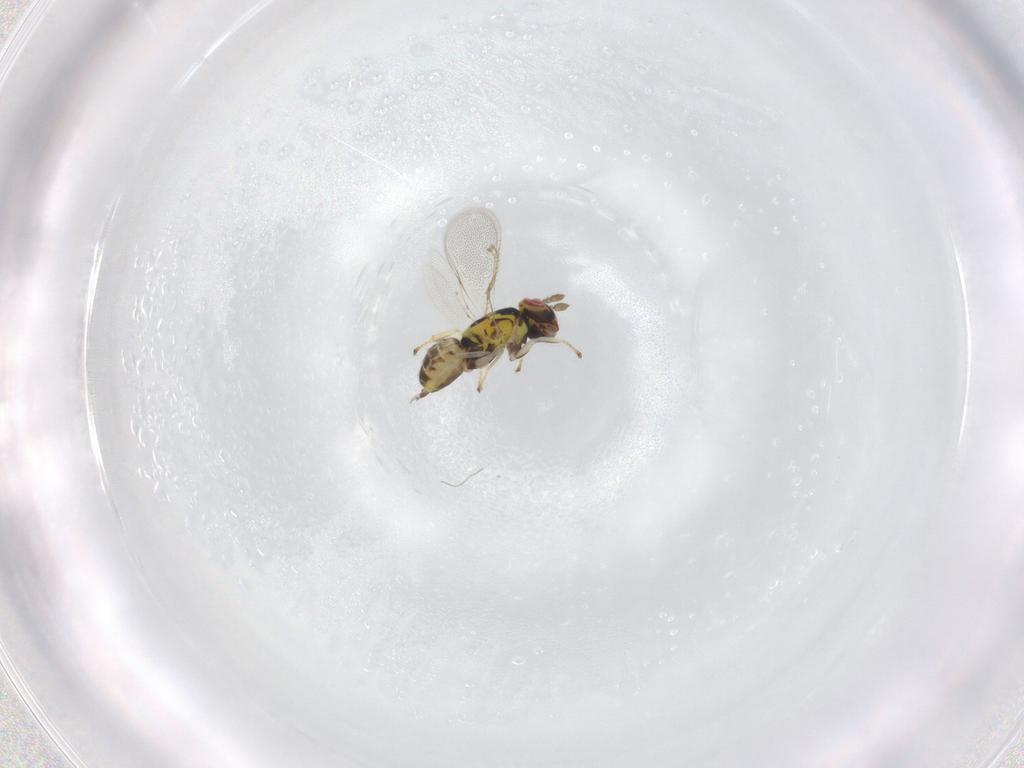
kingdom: Animalia
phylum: Arthropoda
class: Insecta
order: Hymenoptera
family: Eulophidae
